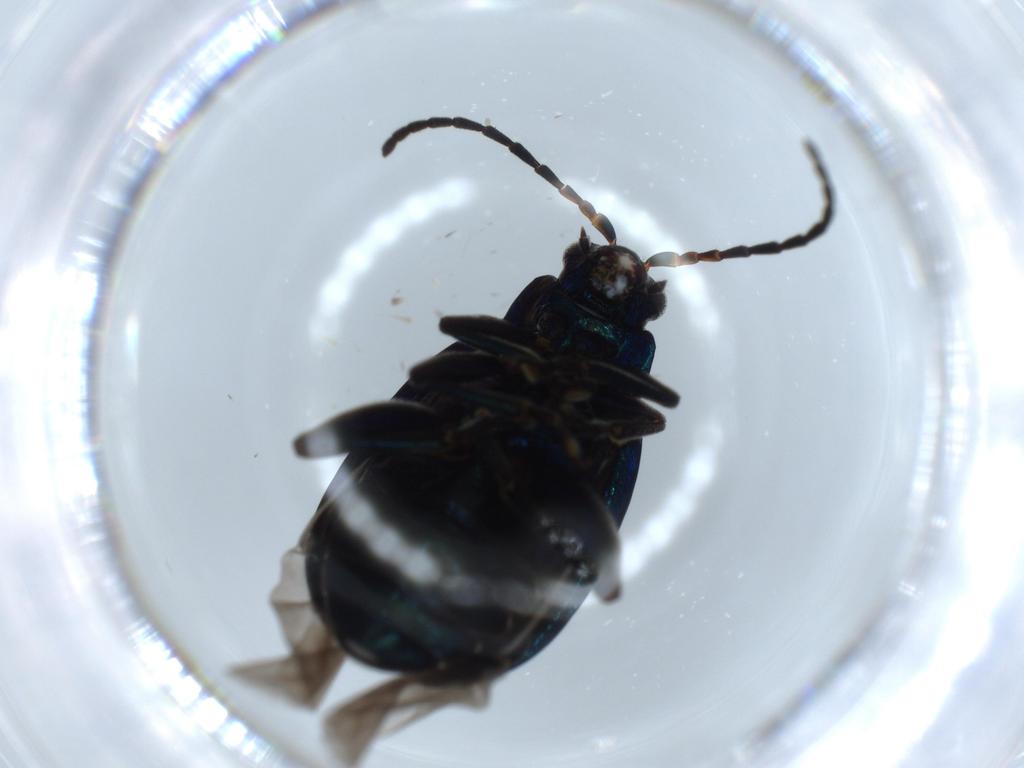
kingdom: Animalia
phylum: Arthropoda
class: Insecta
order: Coleoptera
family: Chrysomelidae
